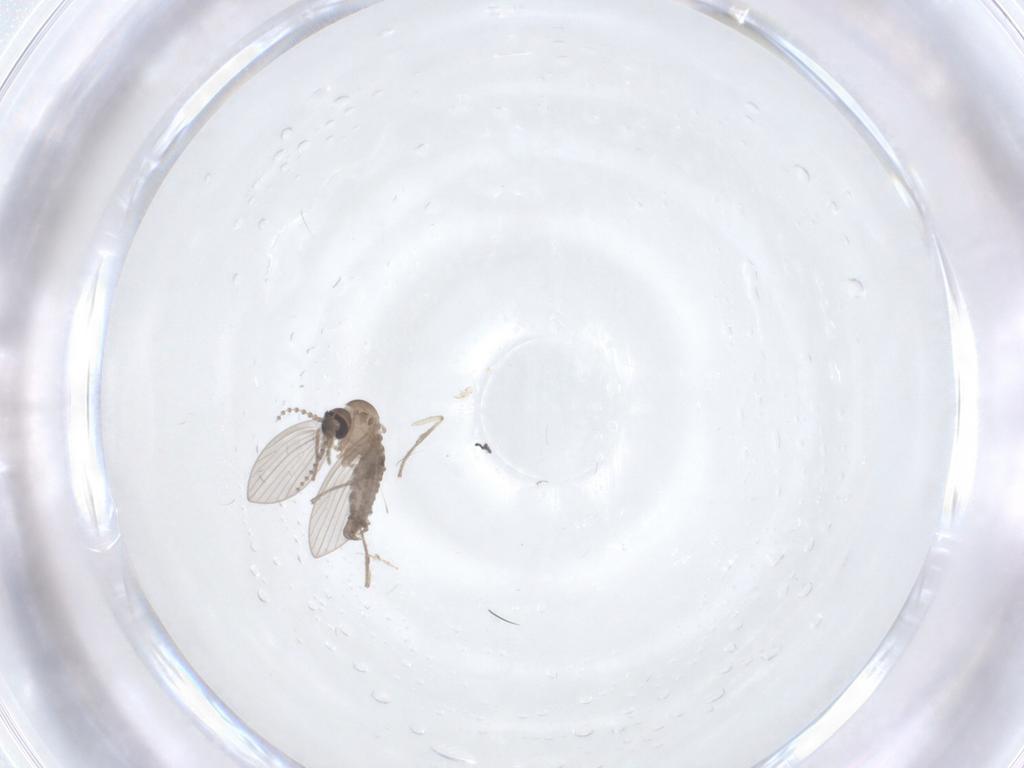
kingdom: Animalia
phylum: Arthropoda
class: Insecta
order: Diptera
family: Psychodidae
